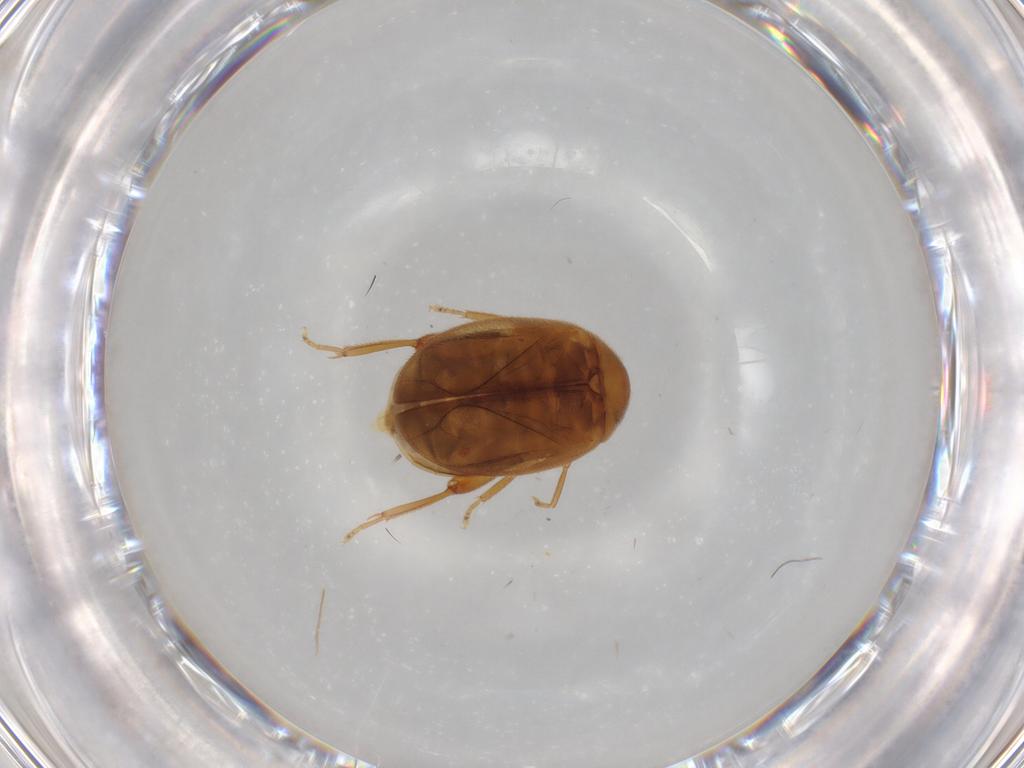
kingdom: Animalia
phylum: Arthropoda
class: Insecta
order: Coleoptera
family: Scirtidae
